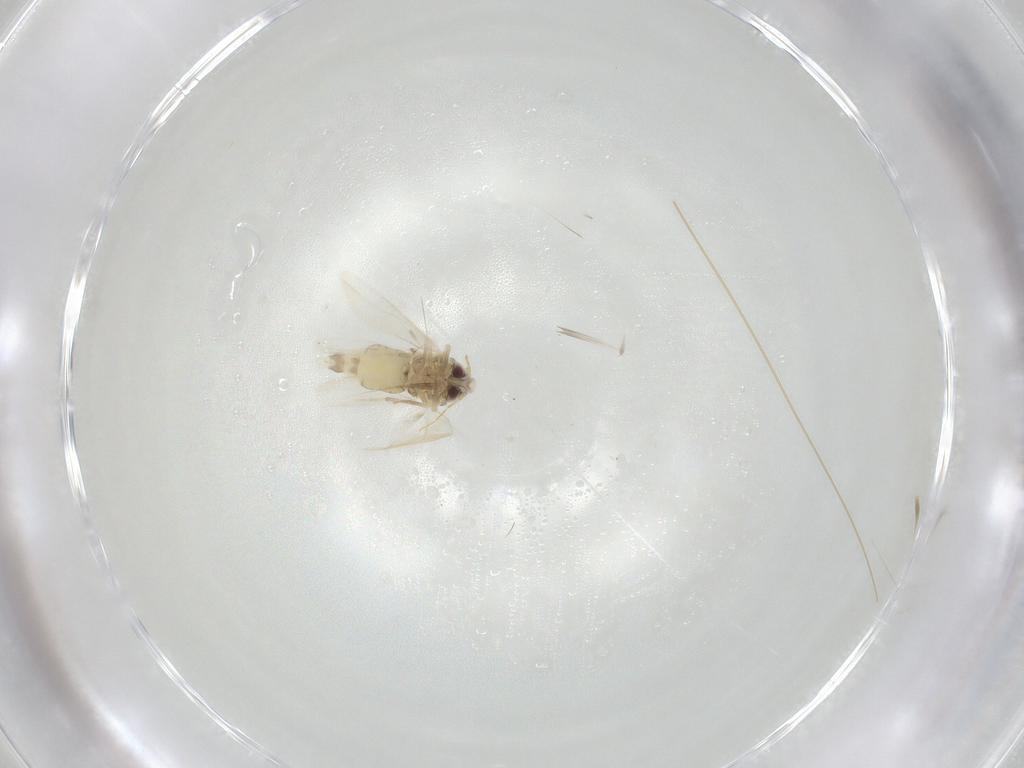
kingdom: Animalia
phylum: Arthropoda
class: Insecta
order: Hemiptera
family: Aleyrodidae
